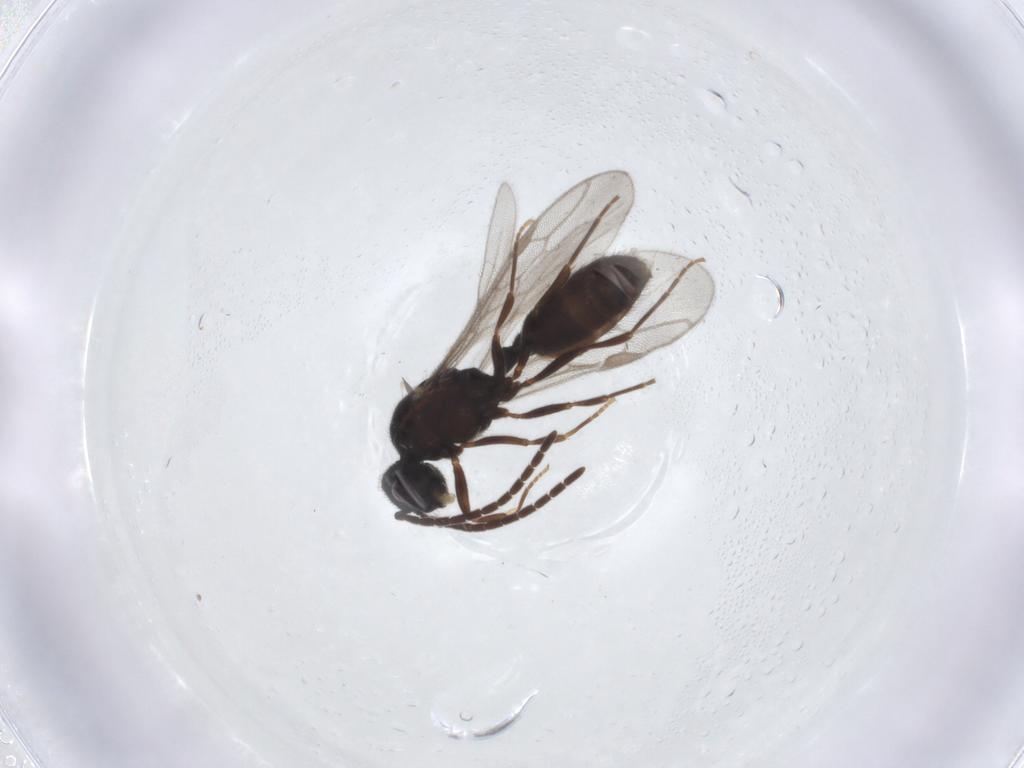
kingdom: Animalia
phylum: Arthropoda
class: Insecta
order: Hymenoptera
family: Formicidae
